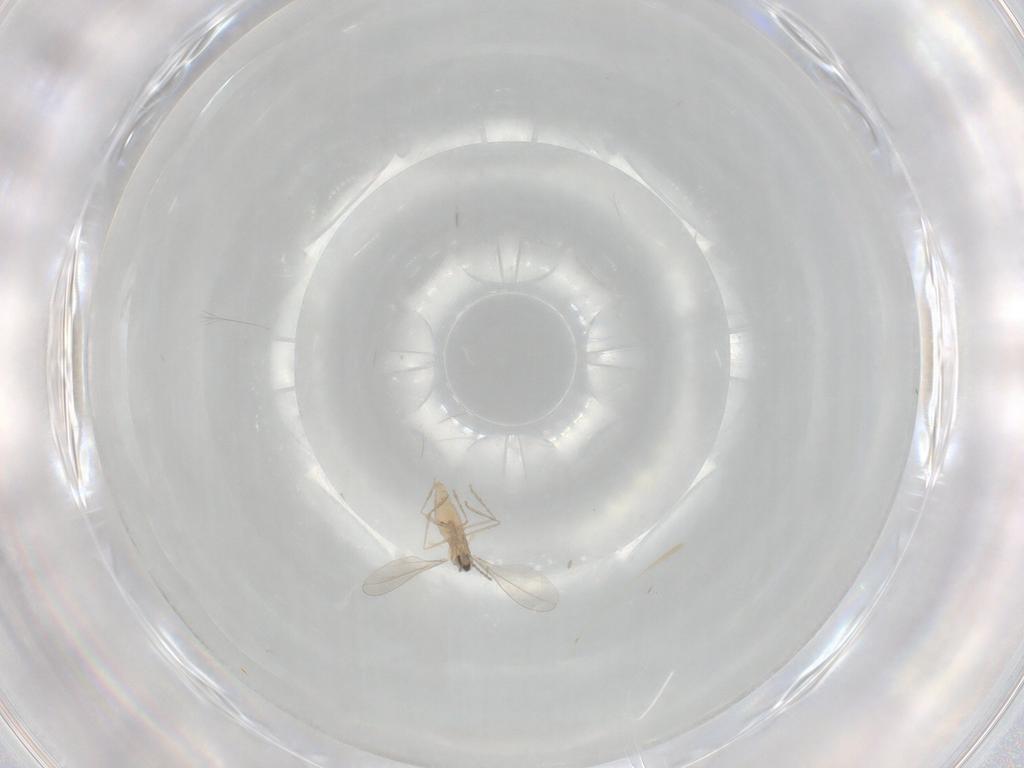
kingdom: Animalia
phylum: Arthropoda
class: Insecta
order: Diptera
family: Cecidomyiidae
